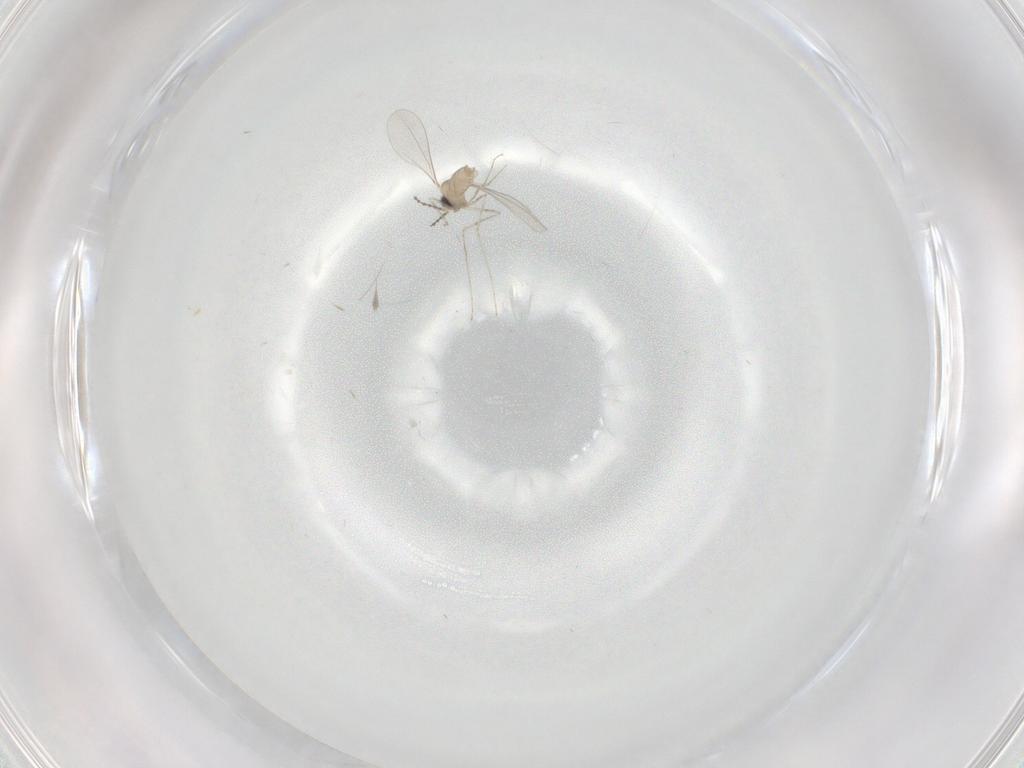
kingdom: Animalia
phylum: Arthropoda
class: Insecta
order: Diptera
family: Cecidomyiidae
